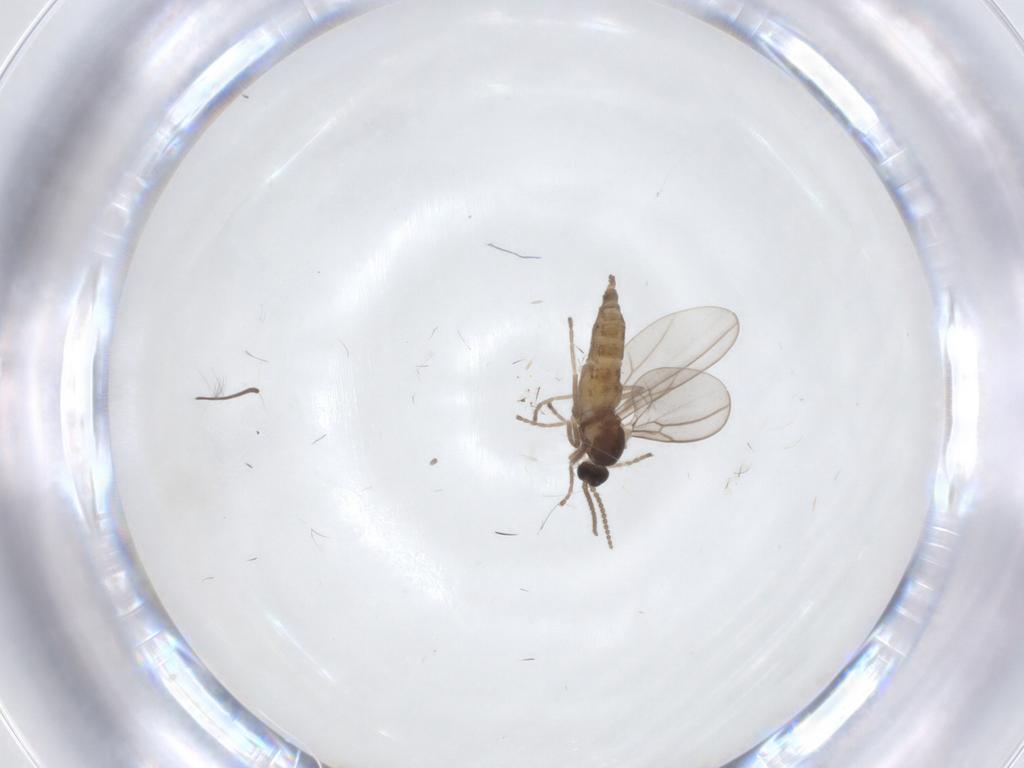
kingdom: Animalia
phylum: Arthropoda
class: Insecta
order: Diptera
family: Cecidomyiidae
